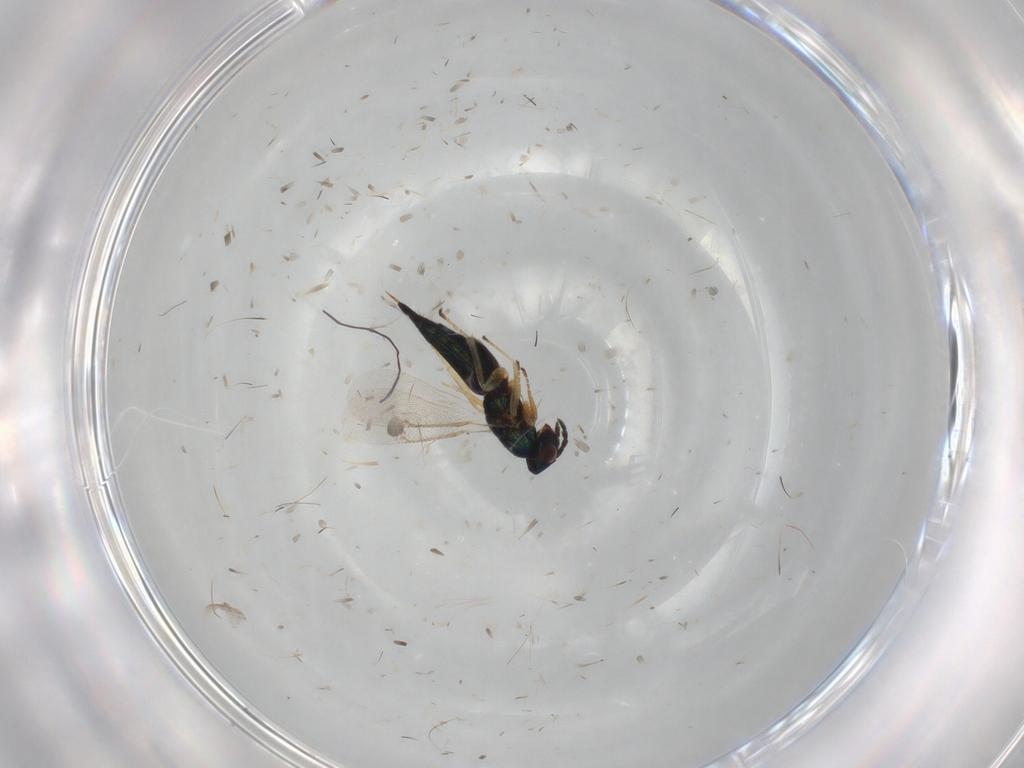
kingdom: Animalia
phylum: Arthropoda
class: Insecta
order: Hymenoptera
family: Eulophidae
